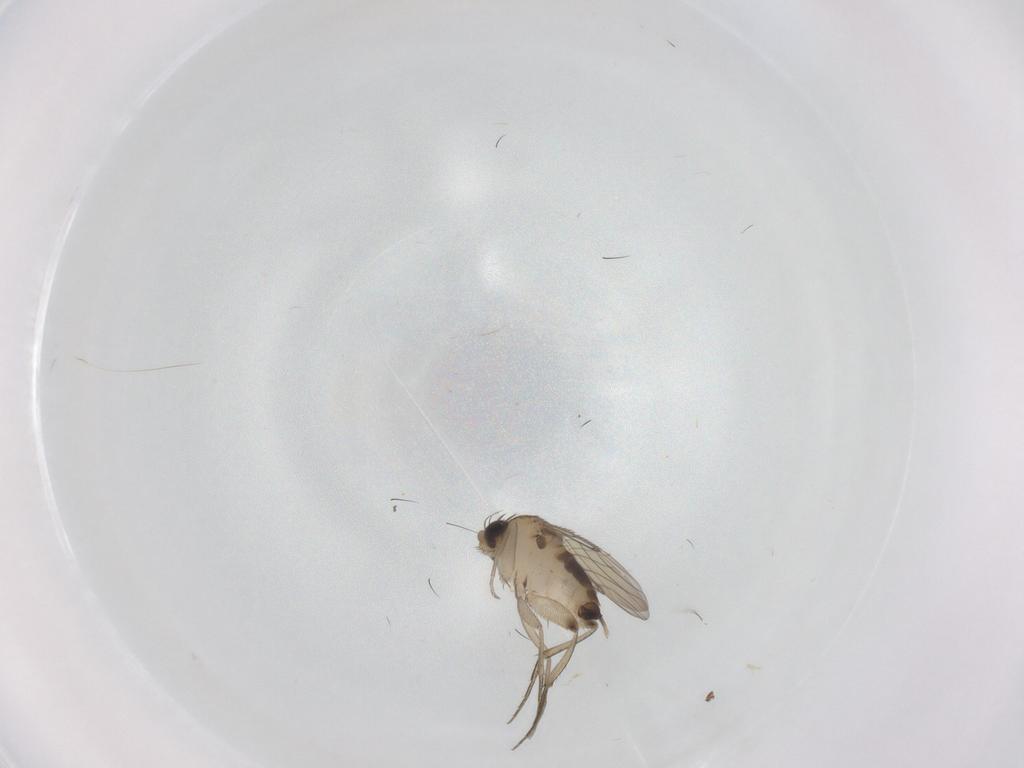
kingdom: Animalia
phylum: Arthropoda
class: Insecta
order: Diptera
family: Phoridae
